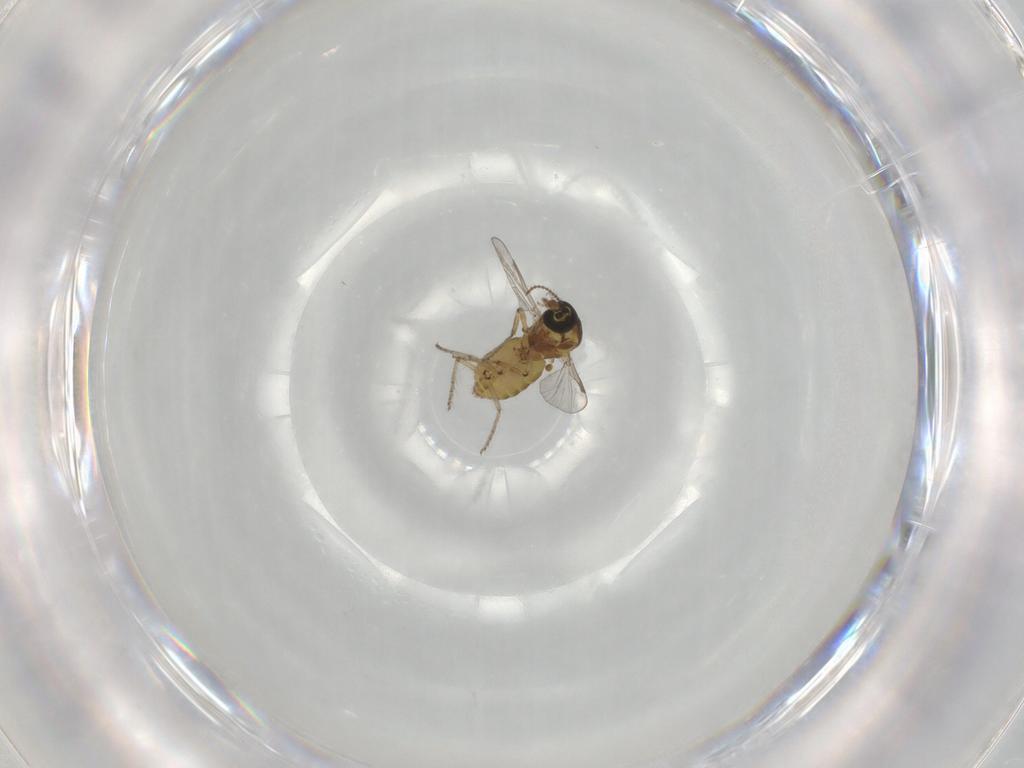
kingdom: Animalia
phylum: Arthropoda
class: Insecta
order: Diptera
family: Ceratopogonidae
